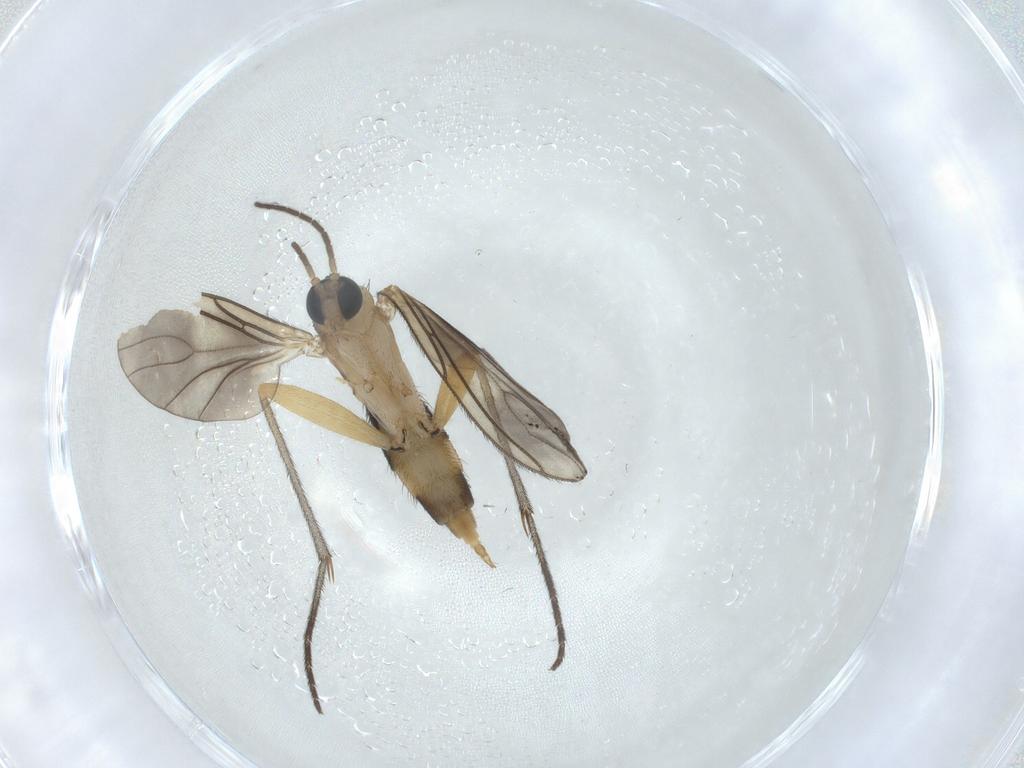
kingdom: Animalia
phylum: Arthropoda
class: Insecta
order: Diptera
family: Sciaridae
